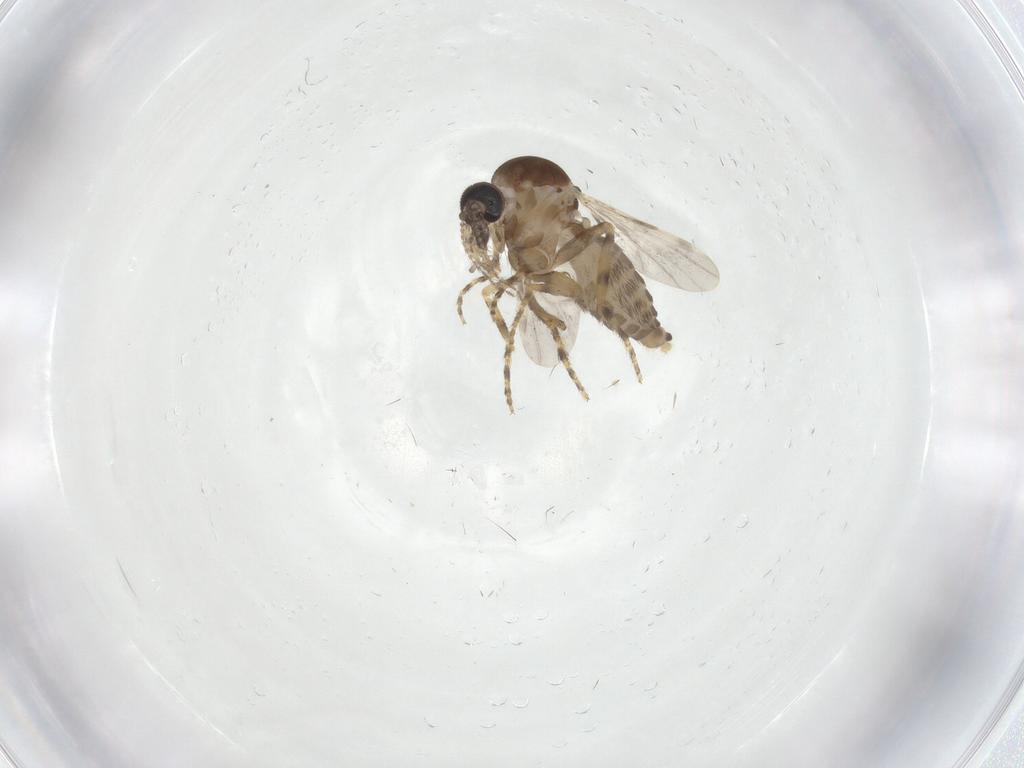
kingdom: Animalia
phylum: Arthropoda
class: Insecta
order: Diptera
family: Ceratopogonidae
